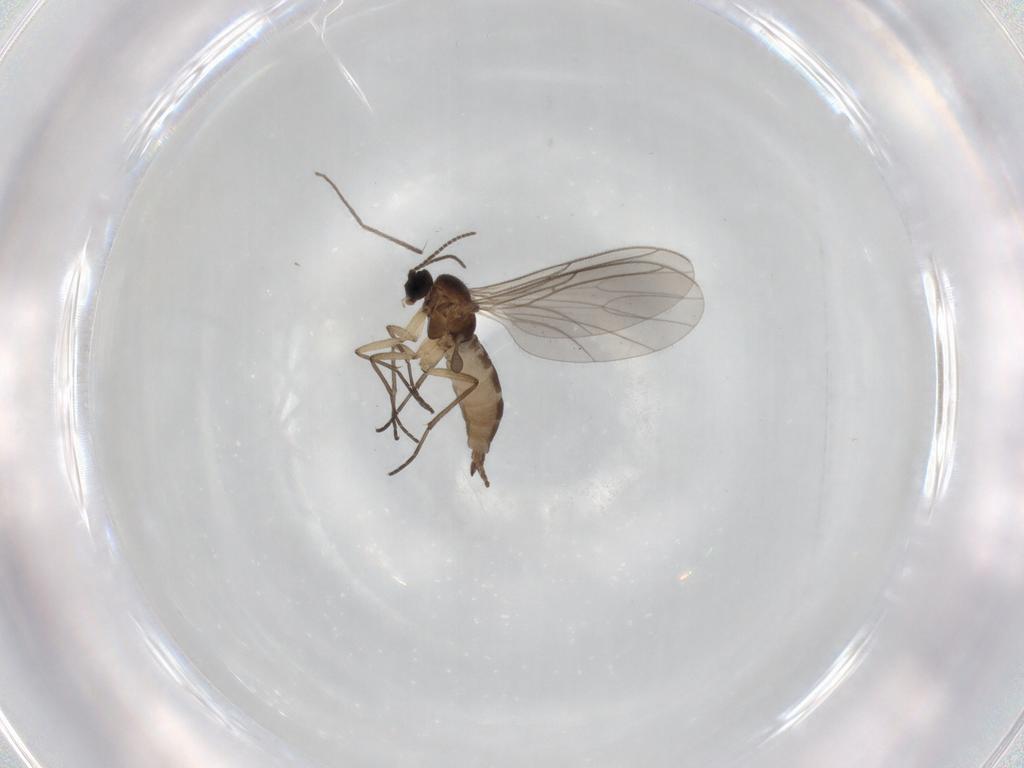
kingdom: Animalia
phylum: Arthropoda
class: Insecta
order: Diptera
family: Sciaridae
